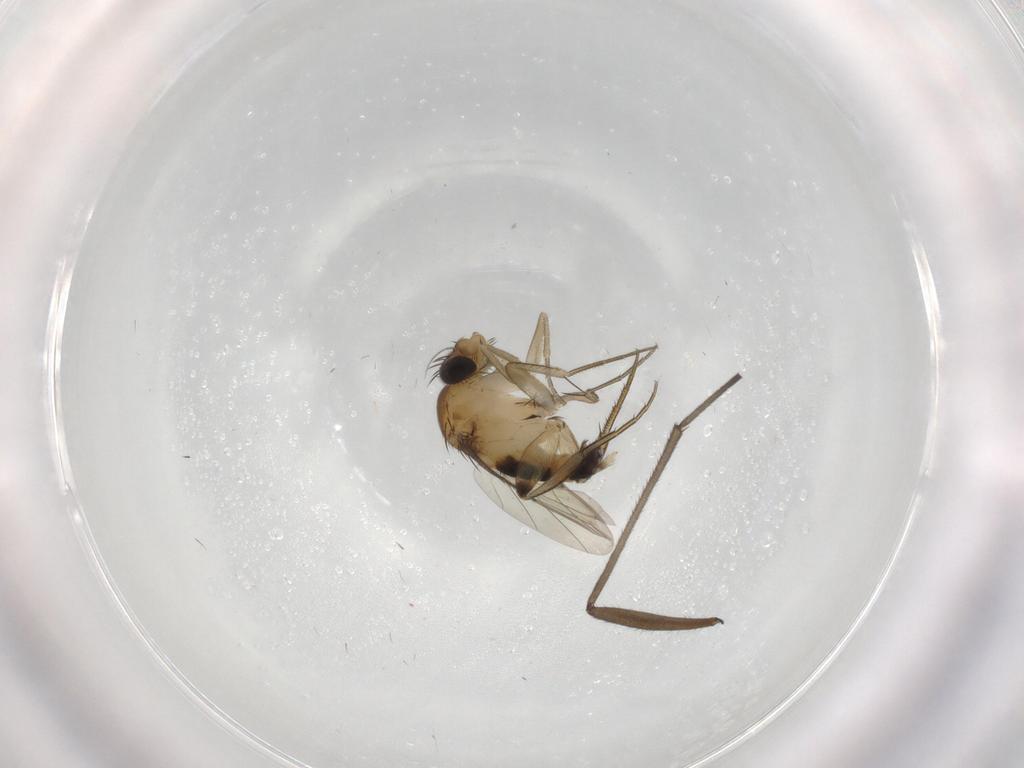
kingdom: Animalia
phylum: Arthropoda
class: Insecta
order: Diptera
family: Phoridae
